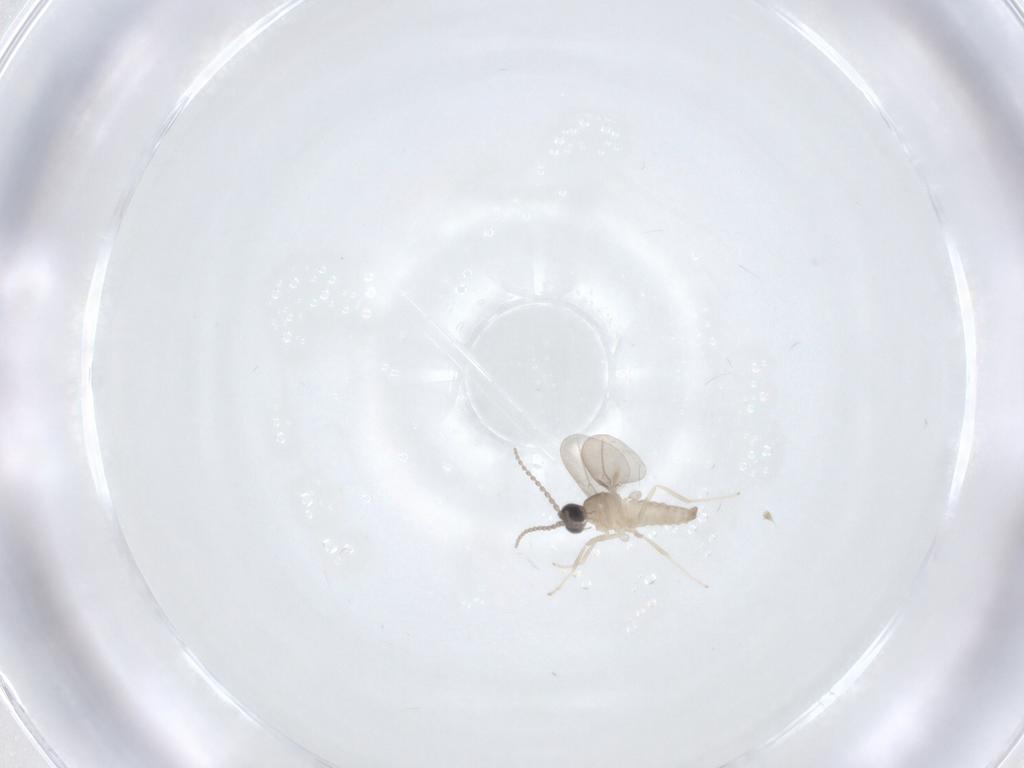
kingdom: Animalia
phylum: Arthropoda
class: Insecta
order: Diptera
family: Cecidomyiidae
